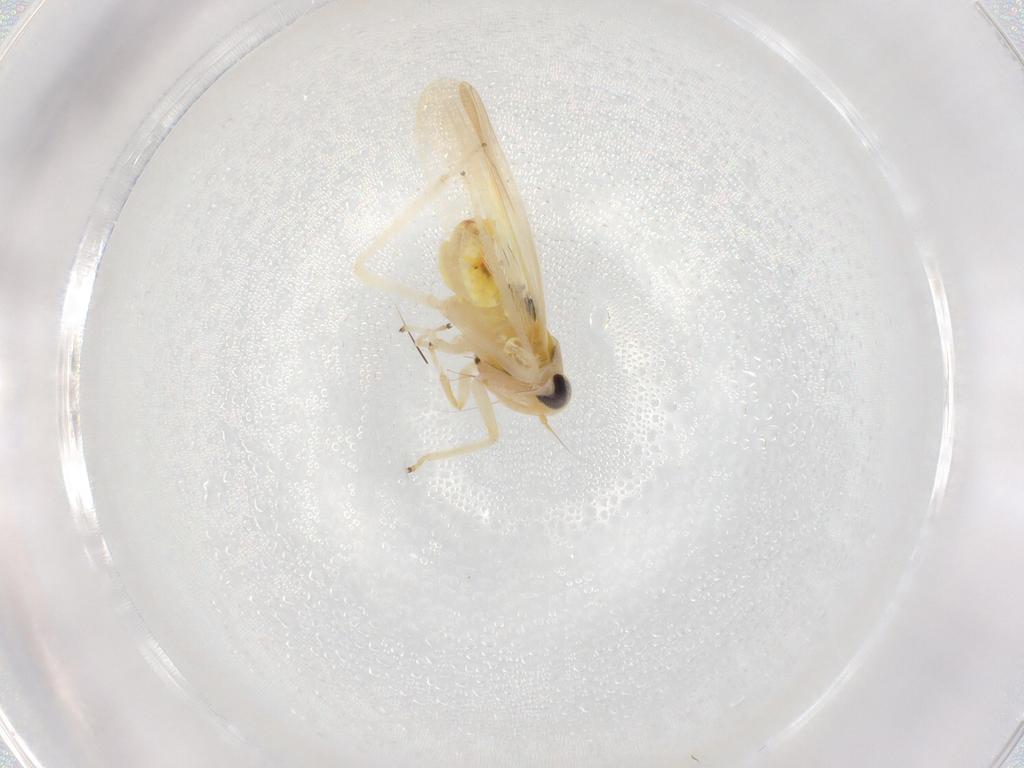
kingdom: Animalia
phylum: Arthropoda
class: Insecta
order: Hemiptera
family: Cicadellidae
